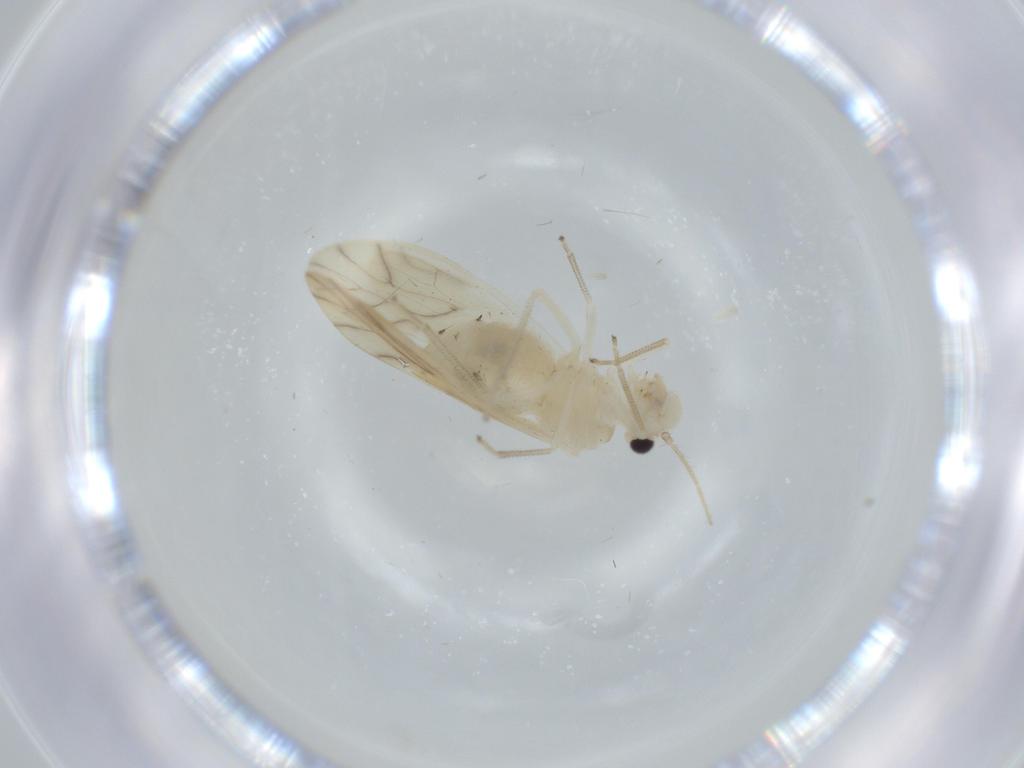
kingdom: Animalia
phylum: Arthropoda
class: Insecta
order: Psocodea
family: Caeciliusidae
